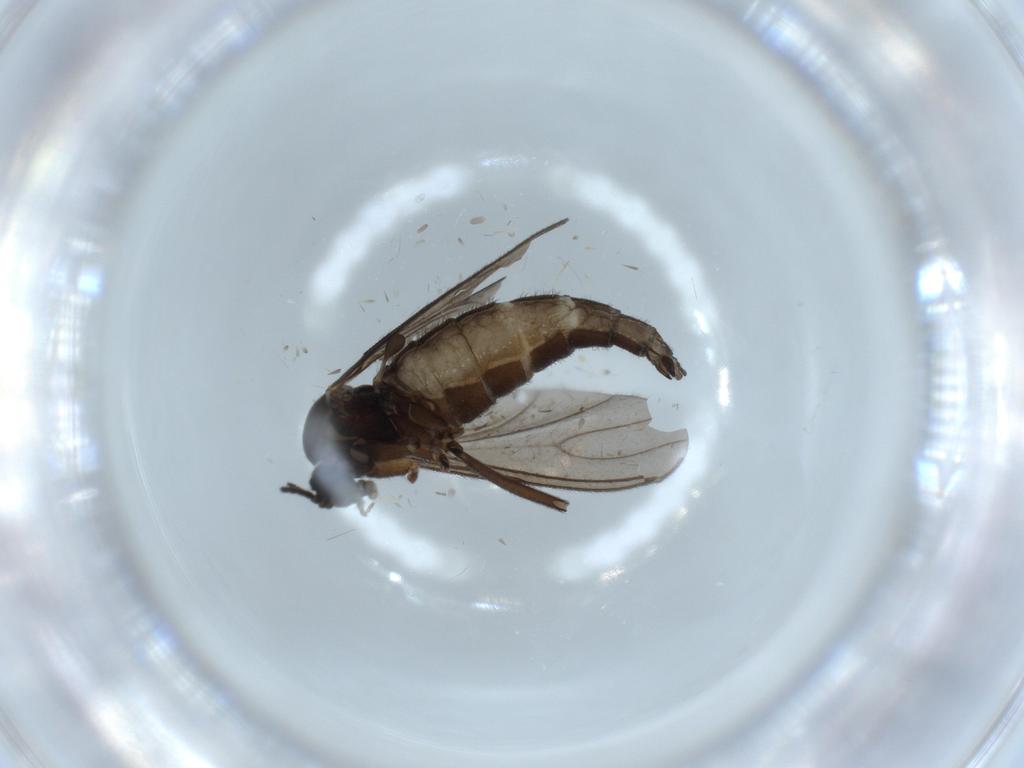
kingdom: Animalia
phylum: Arthropoda
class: Insecta
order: Diptera
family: Sciaridae
